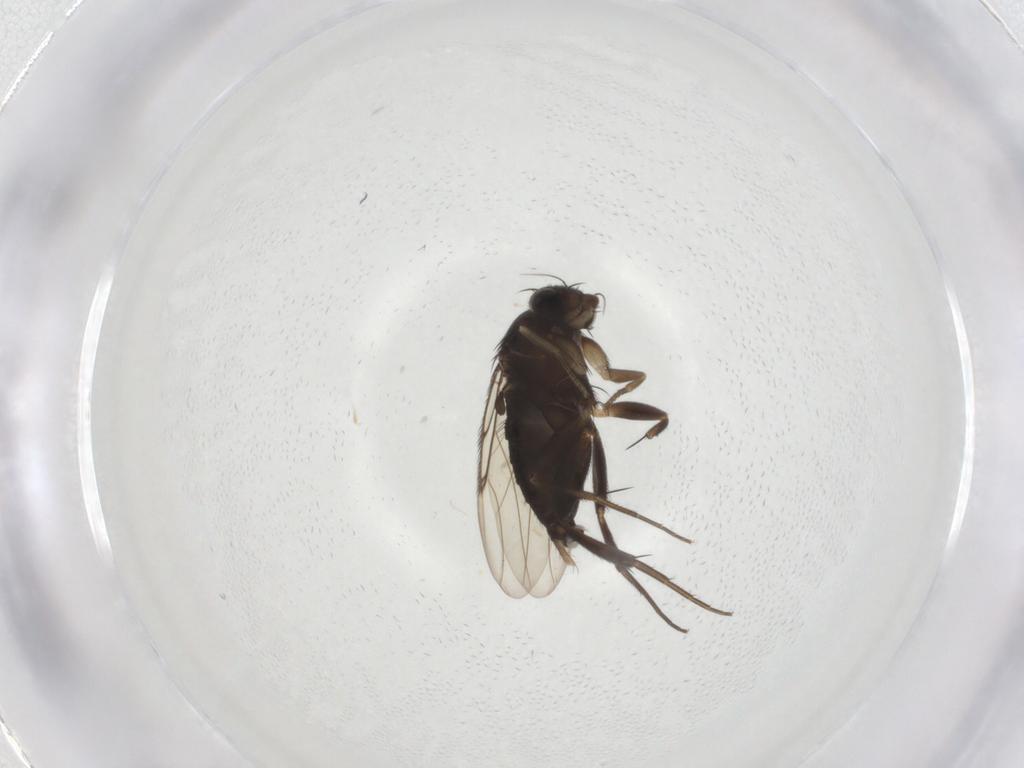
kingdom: Animalia
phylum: Arthropoda
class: Insecta
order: Diptera
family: Phoridae
